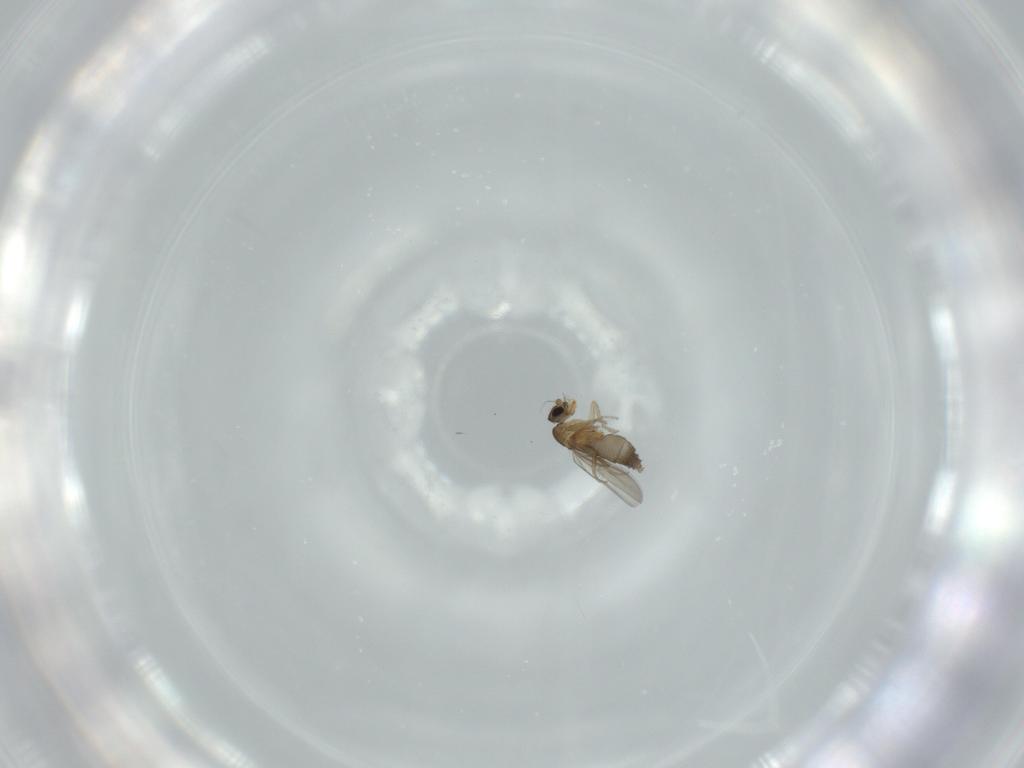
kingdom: Animalia
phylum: Arthropoda
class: Insecta
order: Diptera
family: Phoridae
